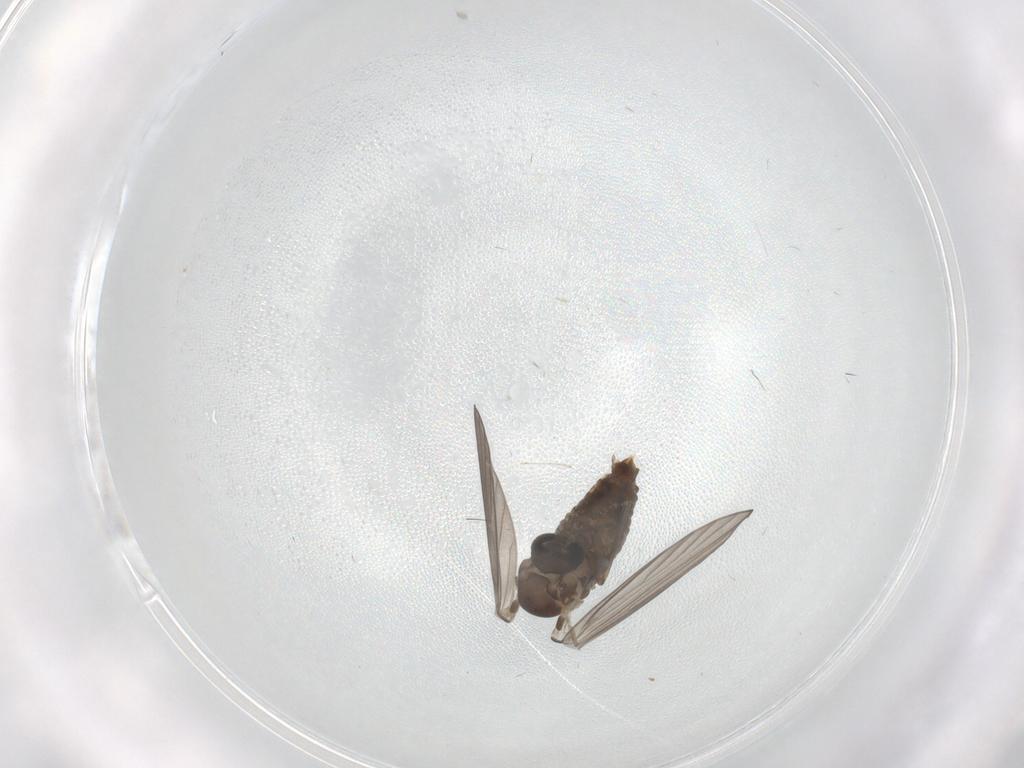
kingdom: Animalia
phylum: Arthropoda
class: Insecta
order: Diptera
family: Psychodidae
